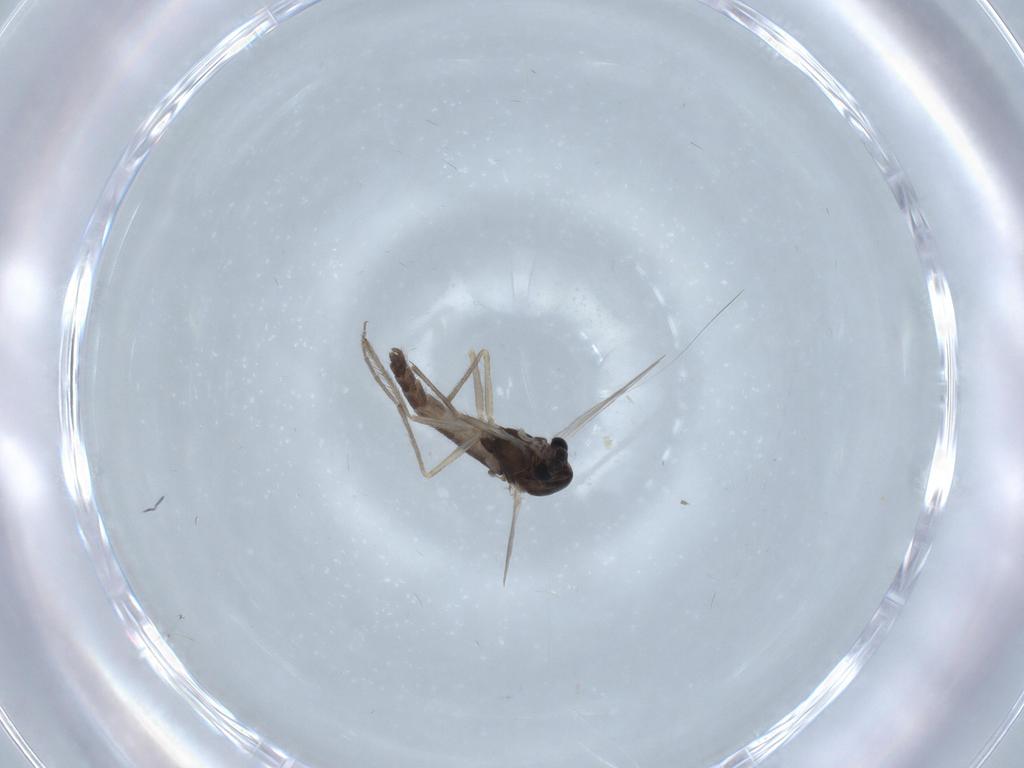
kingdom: Animalia
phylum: Arthropoda
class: Insecta
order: Diptera
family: Chironomidae
